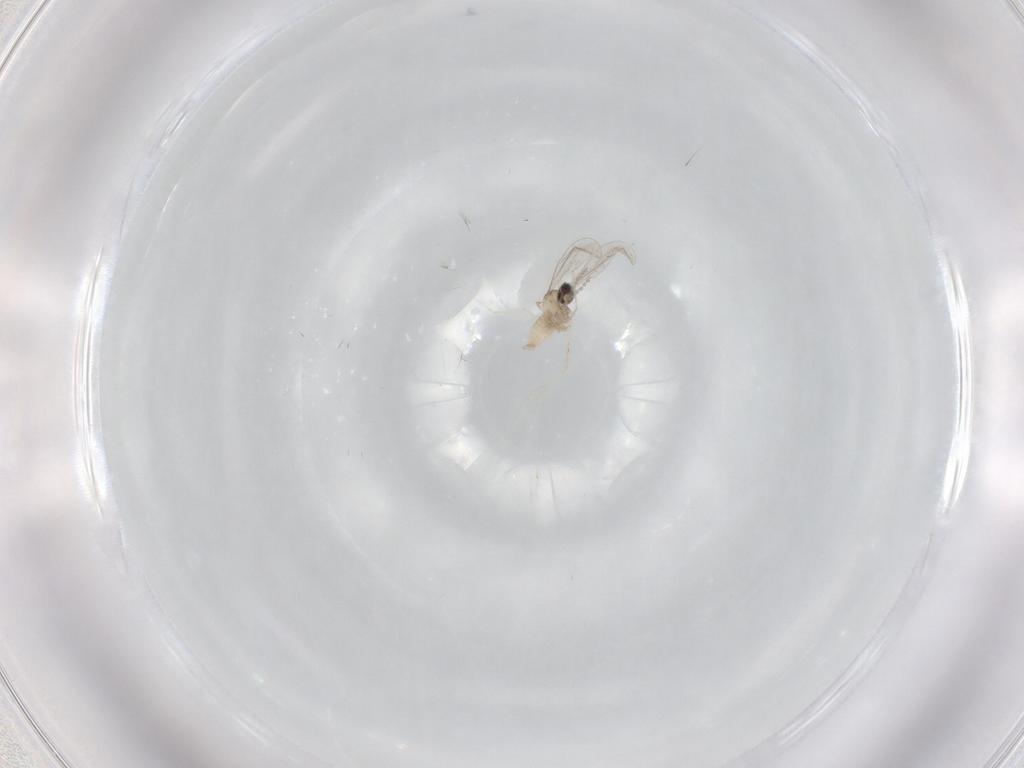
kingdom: Animalia
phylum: Arthropoda
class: Insecta
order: Diptera
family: Cecidomyiidae
